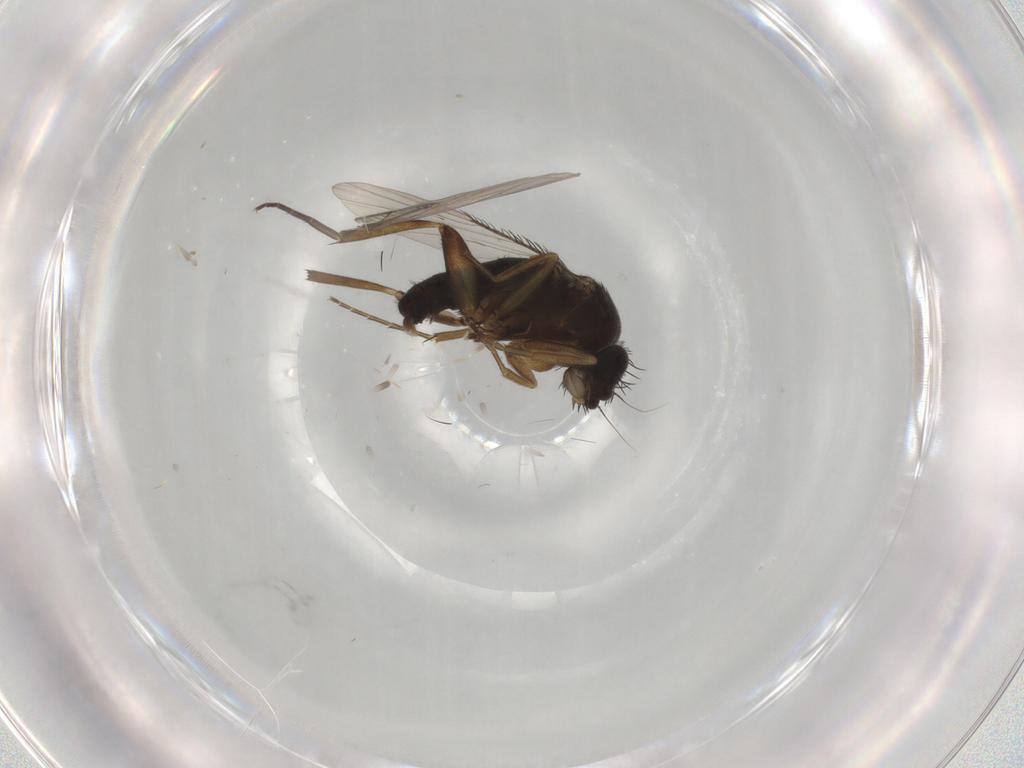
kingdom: Animalia
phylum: Arthropoda
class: Insecta
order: Diptera
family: Phoridae
